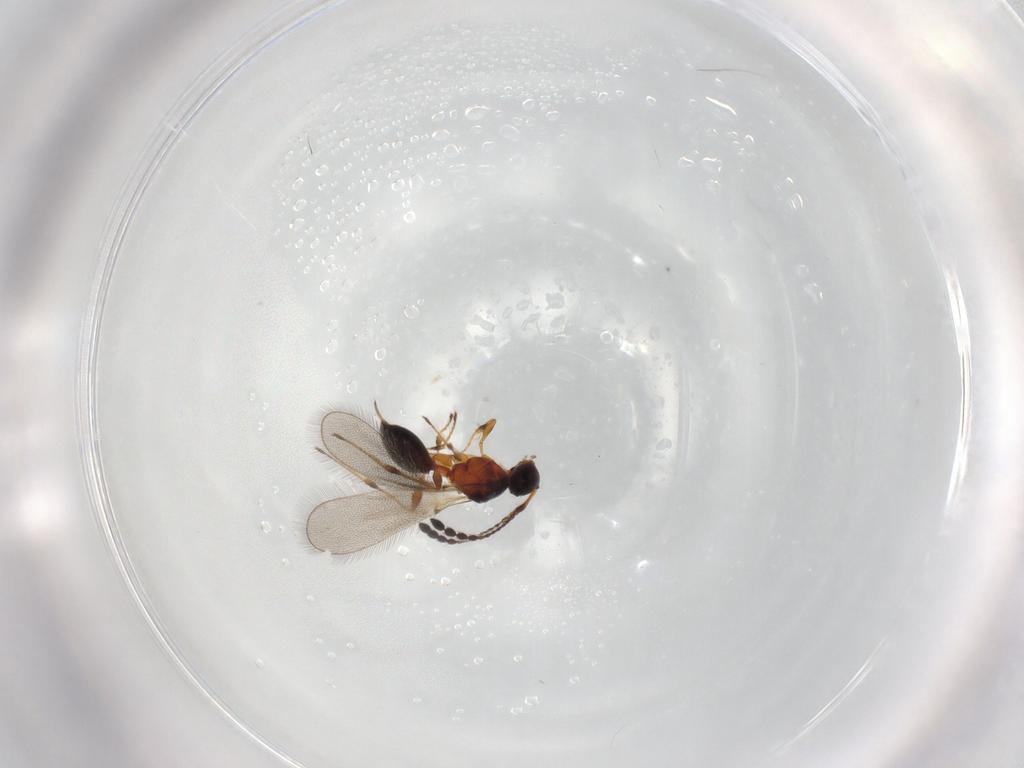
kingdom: Animalia
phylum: Arthropoda
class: Insecta
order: Hymenoptera
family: Diapriidae
